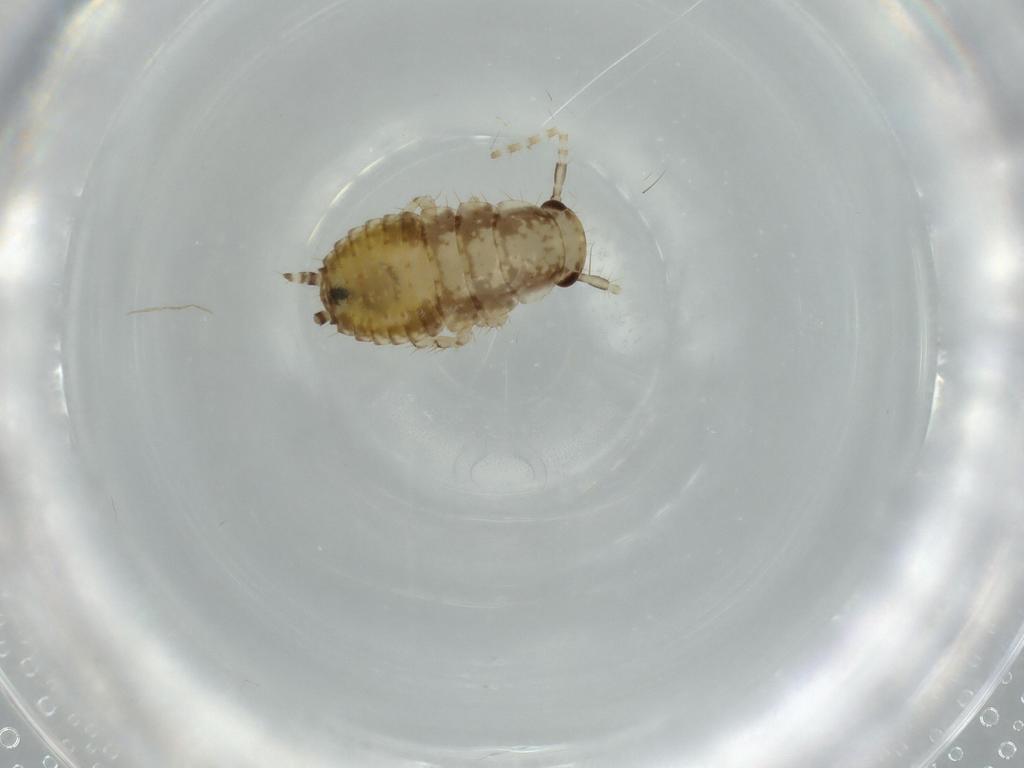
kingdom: Animalia
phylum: Arthropoda
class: Insecta
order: Blattodea
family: Ectobiidae
